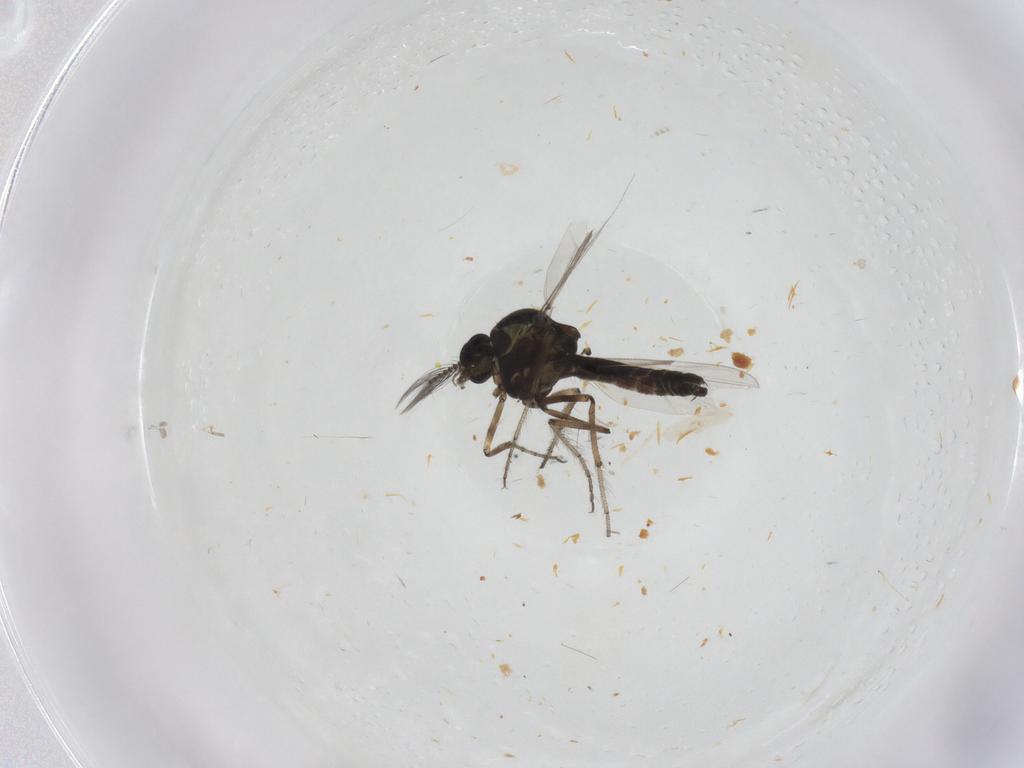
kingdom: Animalia
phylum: Arthropoda
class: Insecta
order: Diptera
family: Ceratopogonidae
